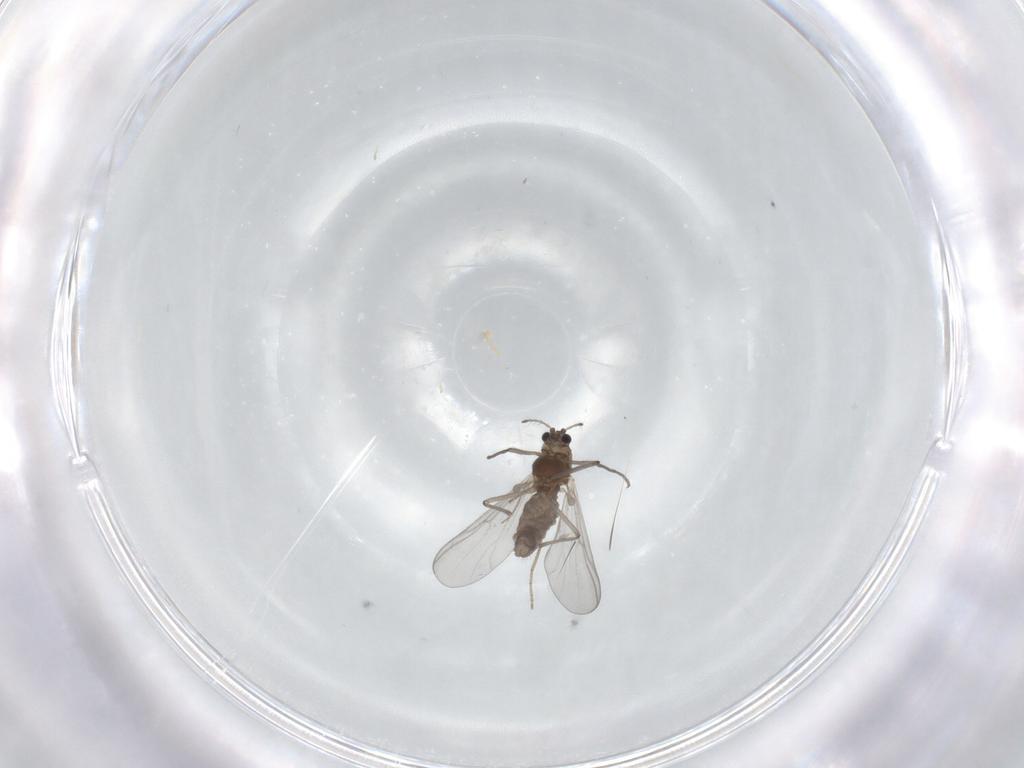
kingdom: Animalia
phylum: Arthropoda
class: Insecta
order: Diptera
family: Chironomidae
